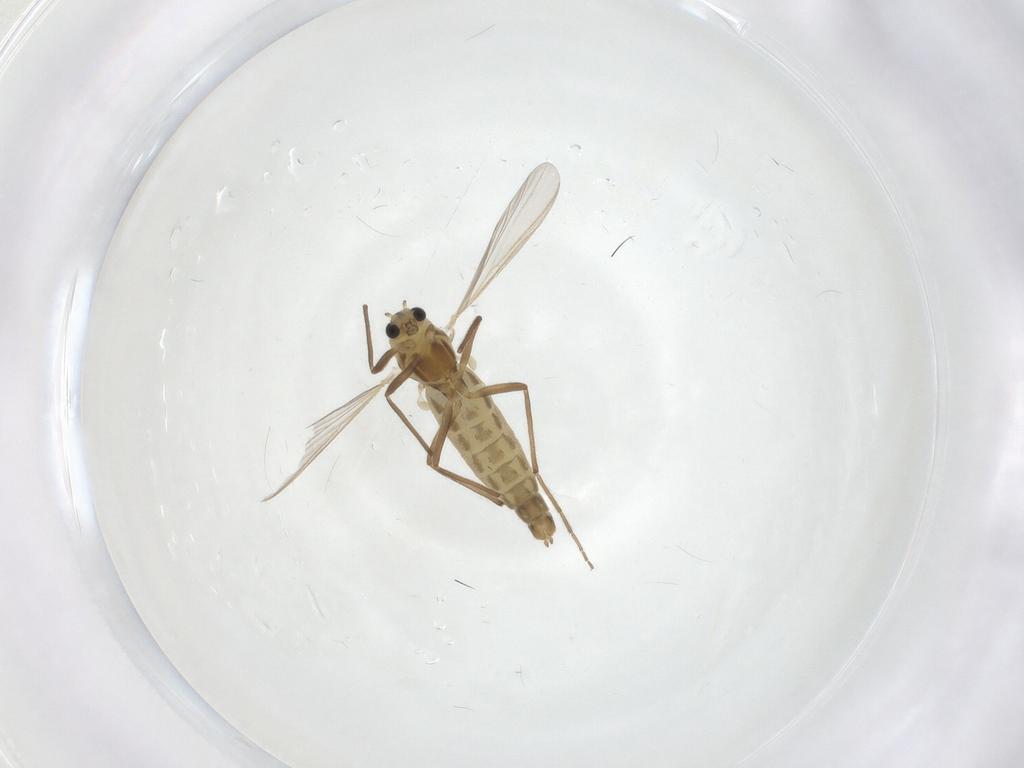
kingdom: Animalia
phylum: Arthropoda
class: Insecta
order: Diptera
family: Chironomidae
